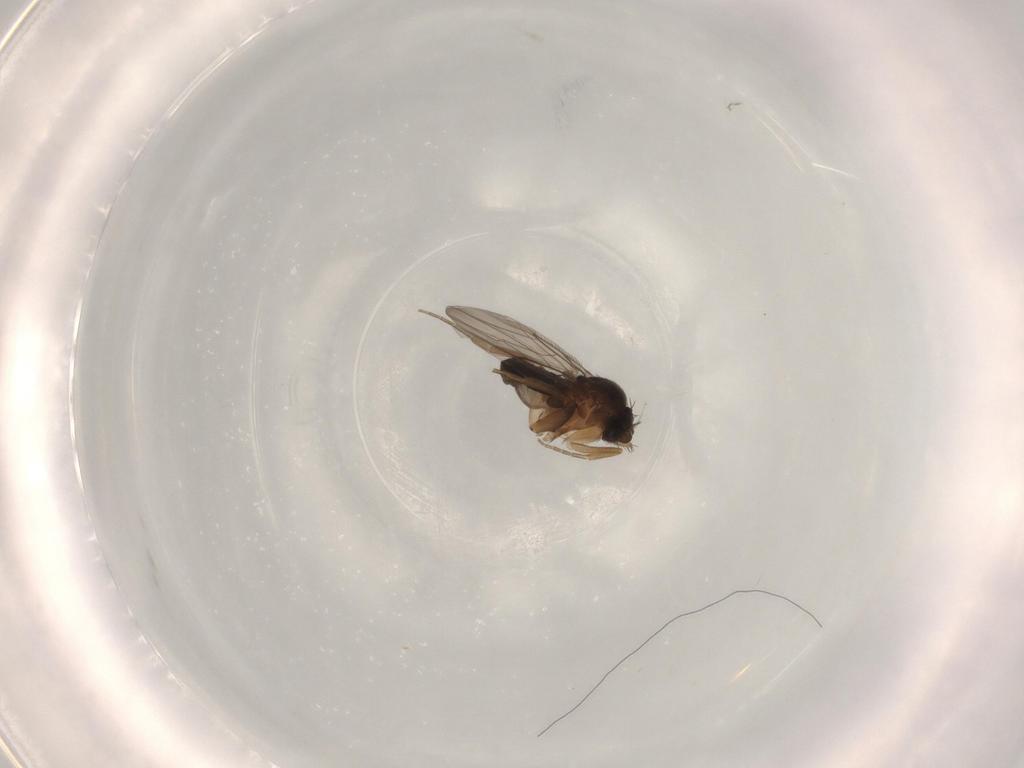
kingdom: Animalia
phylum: Arthropoda
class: Insecta
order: Diptera
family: Phoridae
